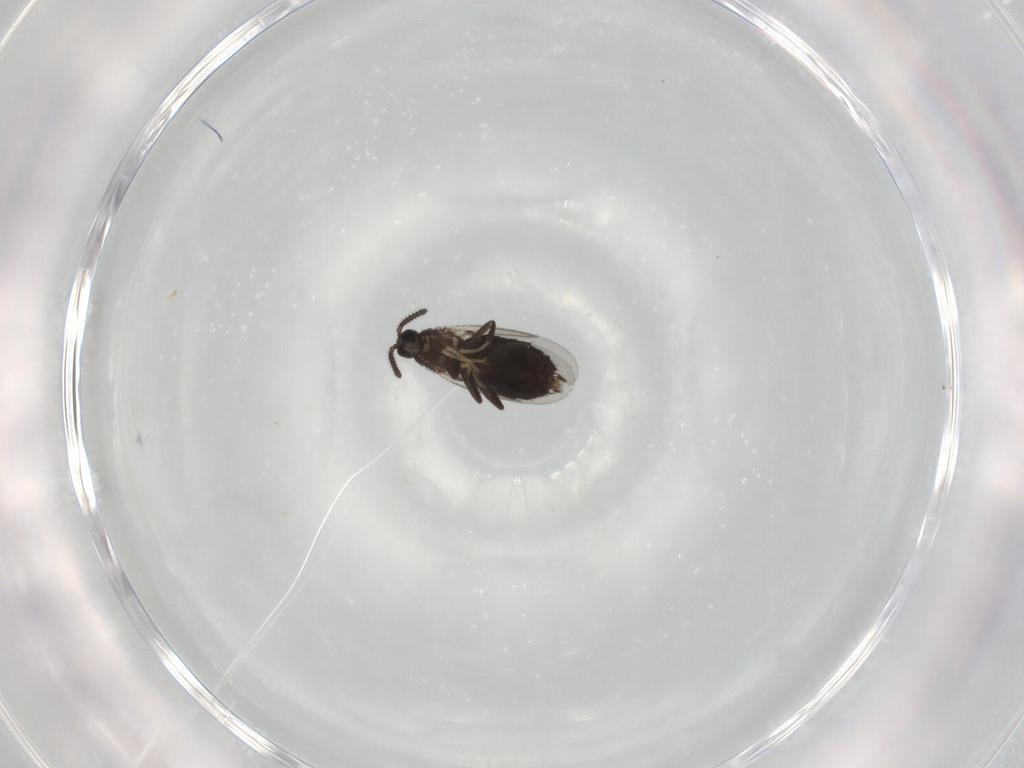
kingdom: Animalia
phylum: Arthropoda
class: Insecta
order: Diptera
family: Scatopsidae
